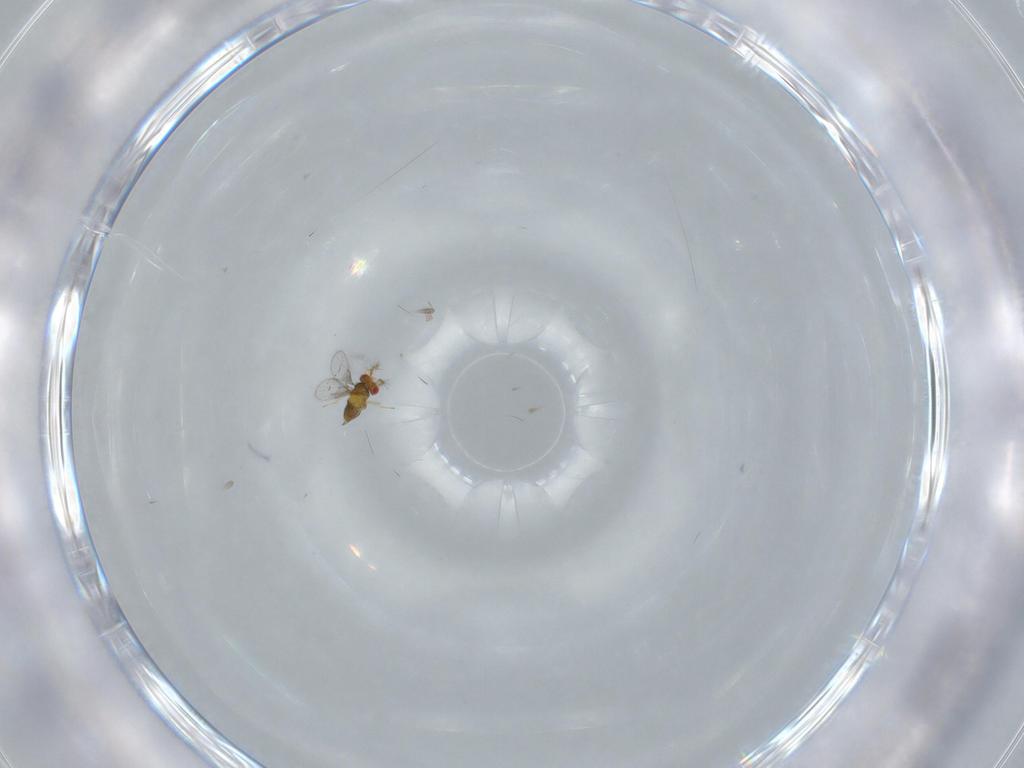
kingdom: Animalia
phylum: Arthropoda
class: Insecta
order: Hymenoptera
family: Trichogrammatidae
